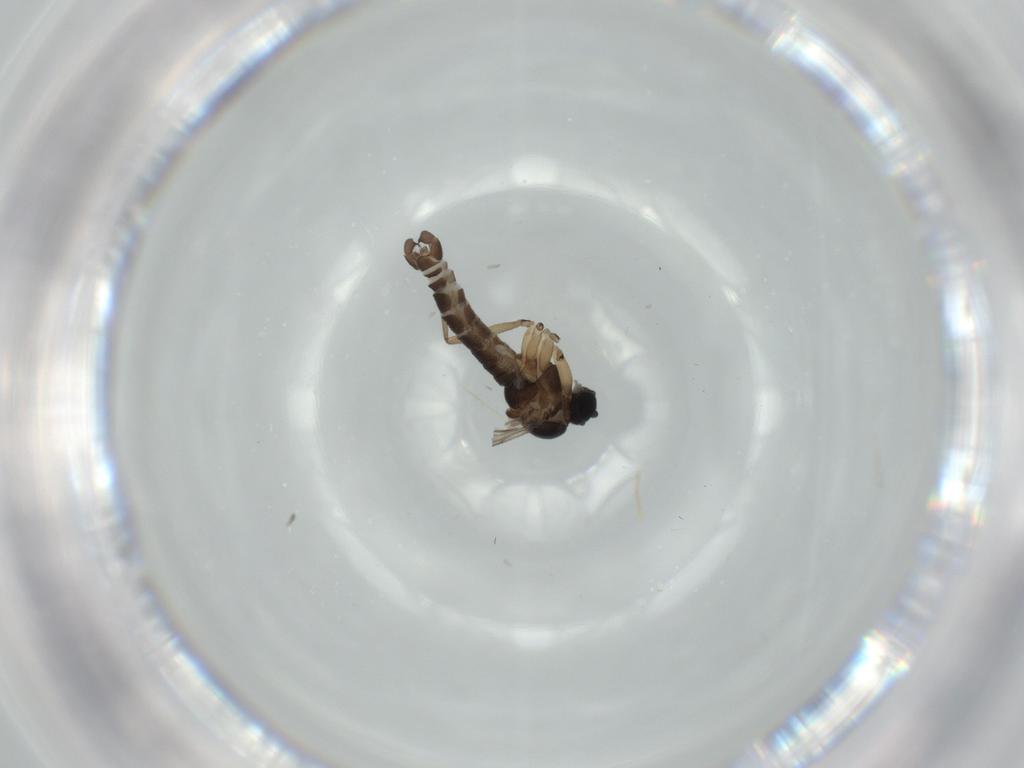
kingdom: Animalia
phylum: Arthropoda
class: Insecta
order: Diptera
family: Sciaridae
